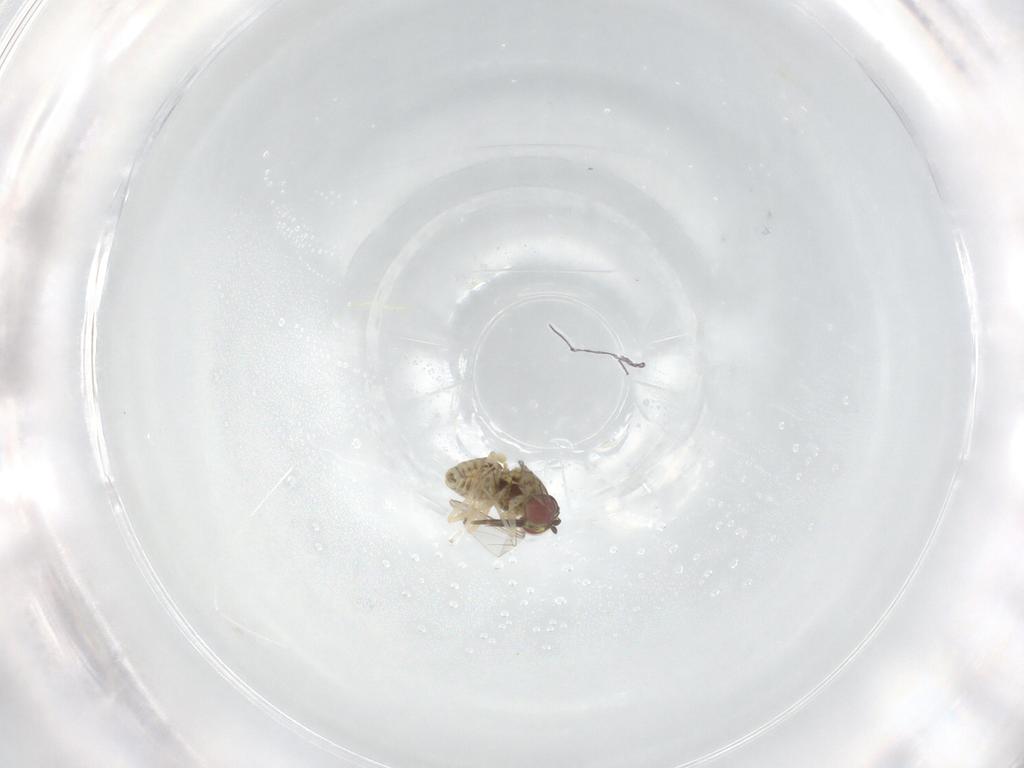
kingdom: Animalia
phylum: Arthropoda
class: Insecta
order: Diptera
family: Bombyliidae
